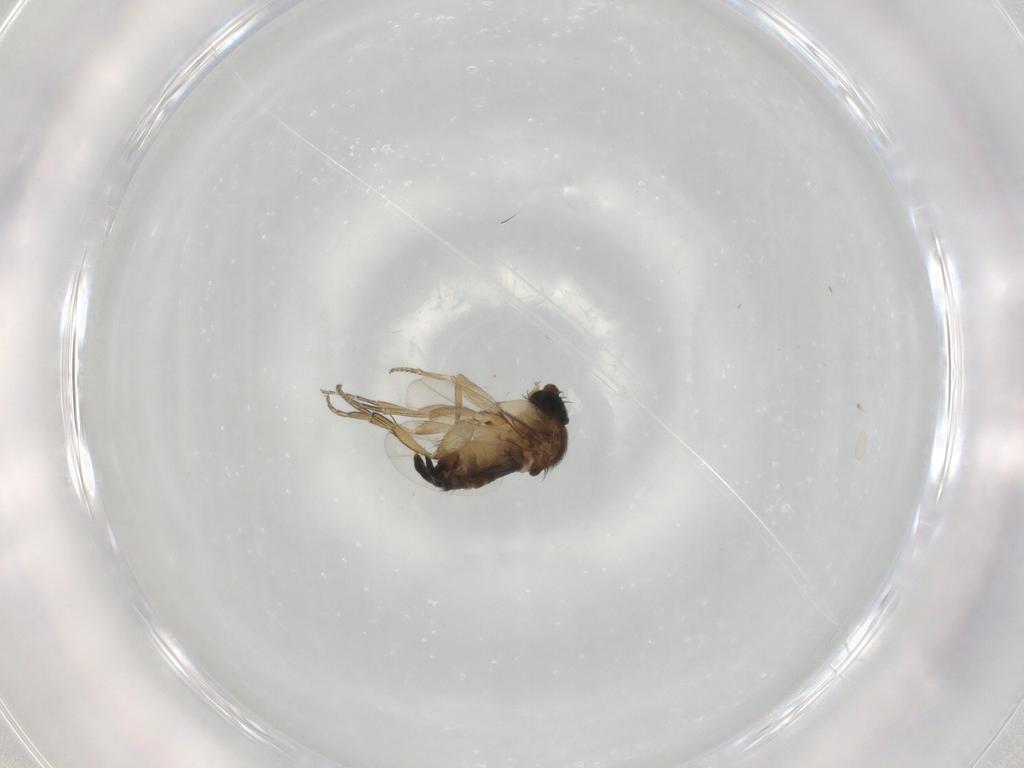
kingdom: Animalia
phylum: Arthropoda
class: Insecta
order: Diptera
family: Phoridae
